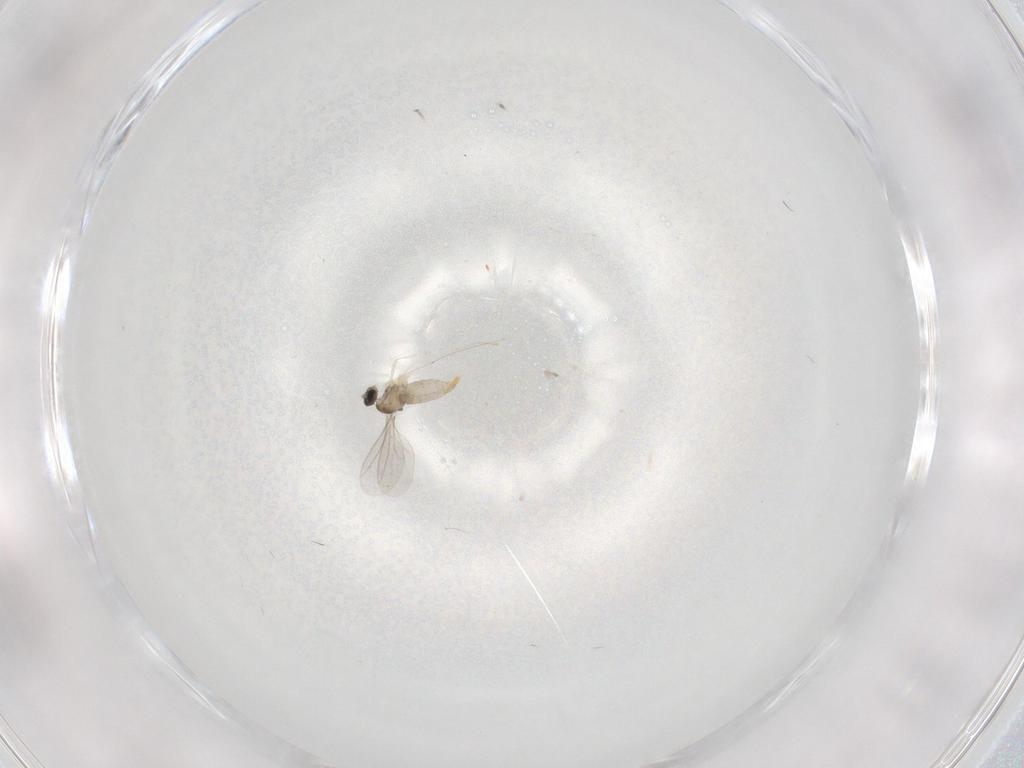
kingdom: Animalia
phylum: Arthropoda
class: Insecta
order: Diptera
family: Cecidomyiidae
